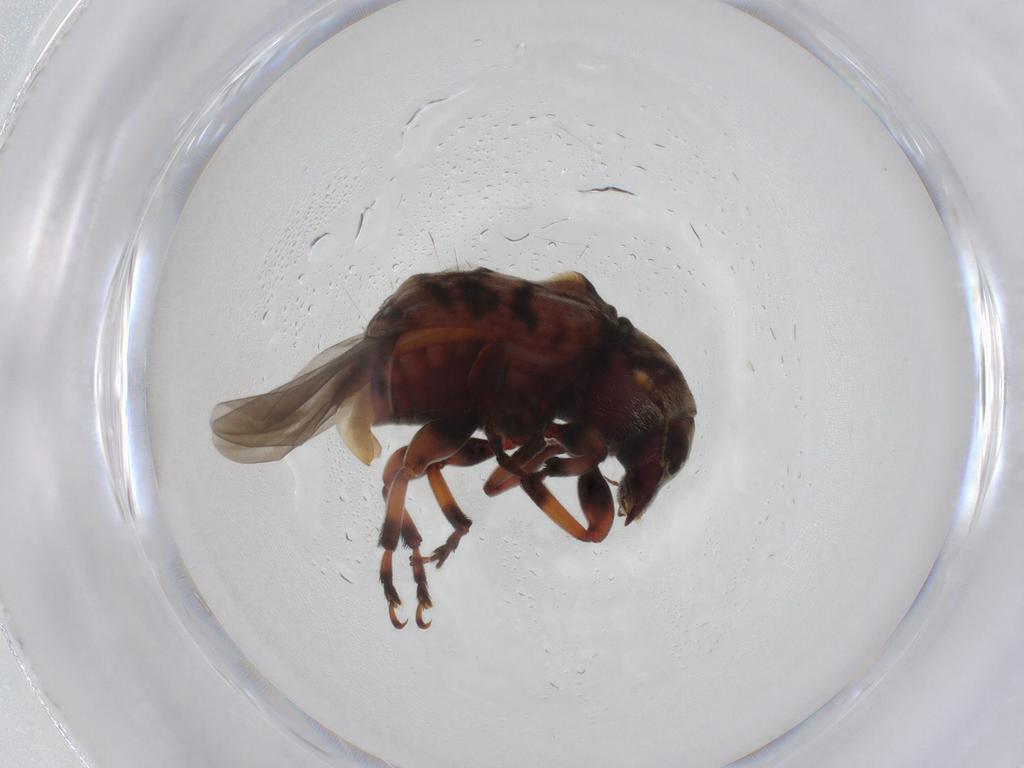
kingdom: Animalia
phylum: Arthropoda
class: Insecta
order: Coleoptera
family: Anthribidae
